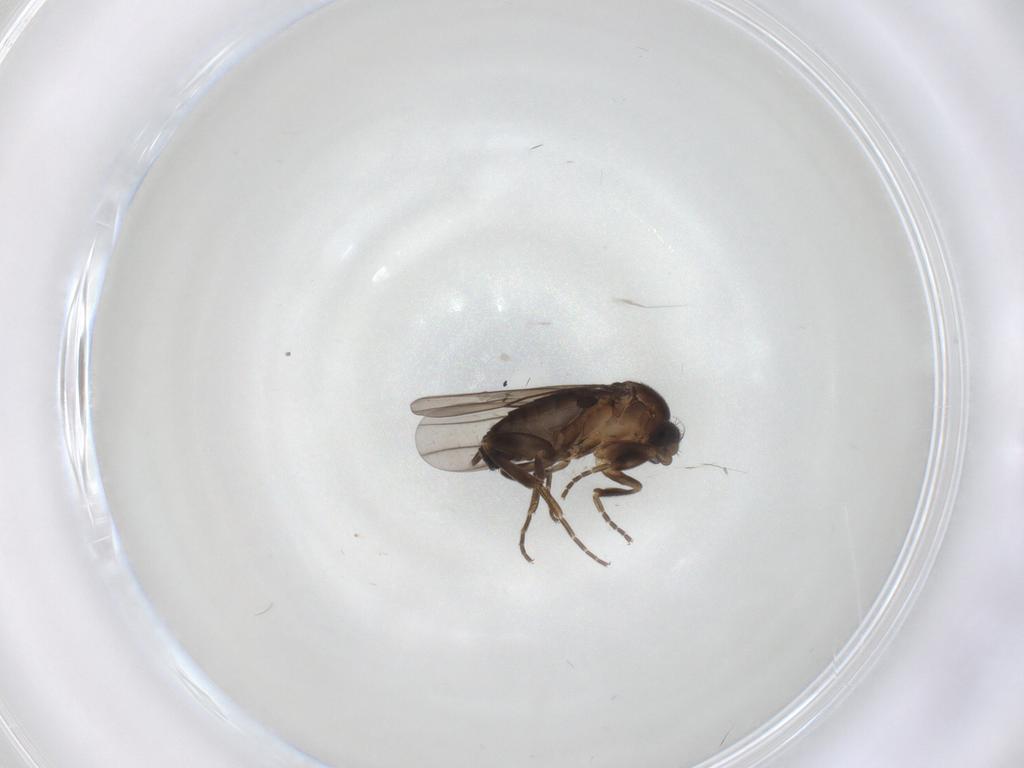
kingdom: Animalia
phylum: Arthropoda
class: Insecta
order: Diptera
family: Phoridae
